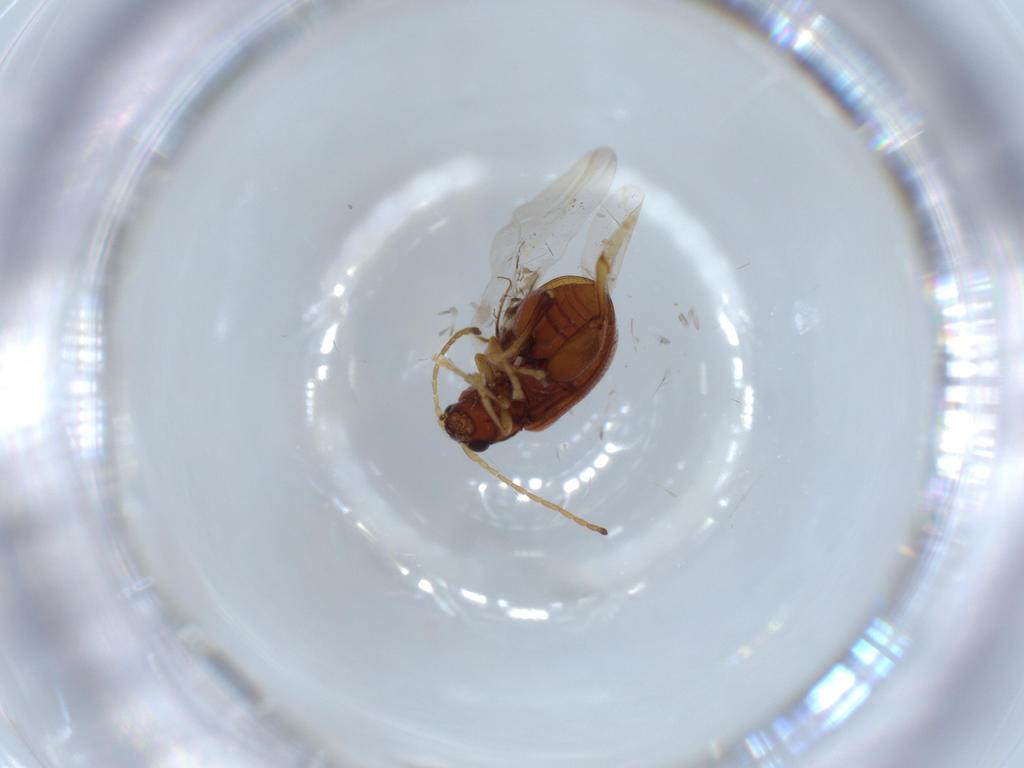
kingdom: Animalia
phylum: Arthropoda
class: Insecta
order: Coleoptera
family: Chrysomelidae
